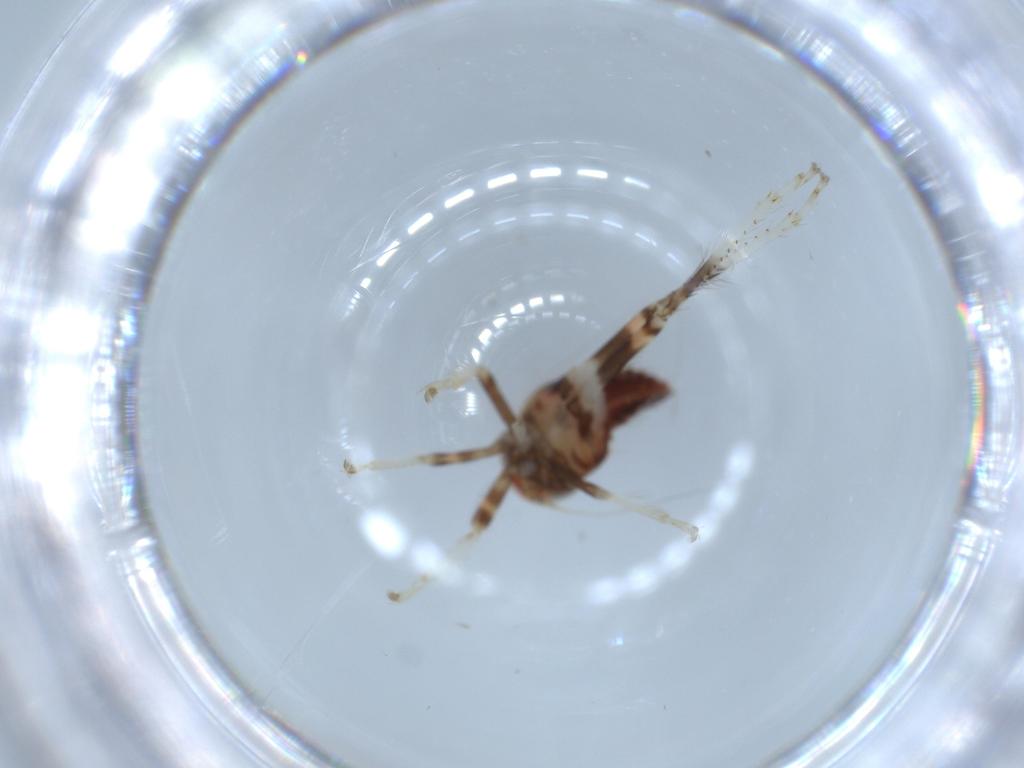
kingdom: Animalia
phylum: Arthropoda
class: Insecta
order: Hemiptera
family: Cicadellidae
